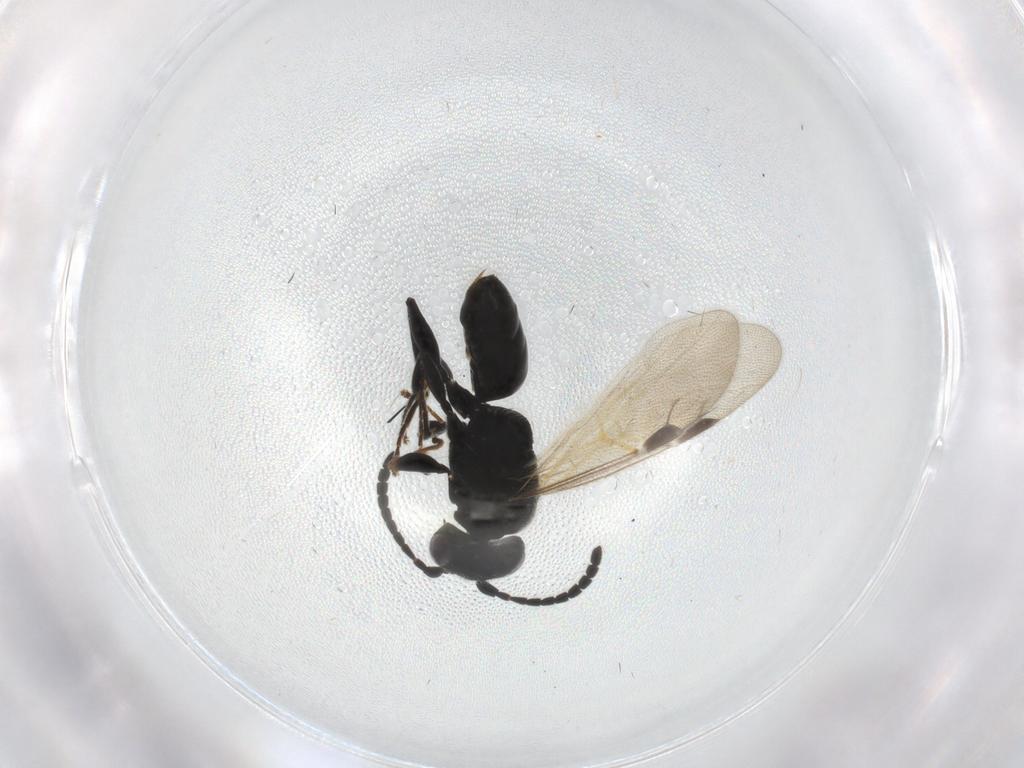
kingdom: Animalia
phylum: Arthropoda
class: Insecta
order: Hymenoptera
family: Dryinidae
